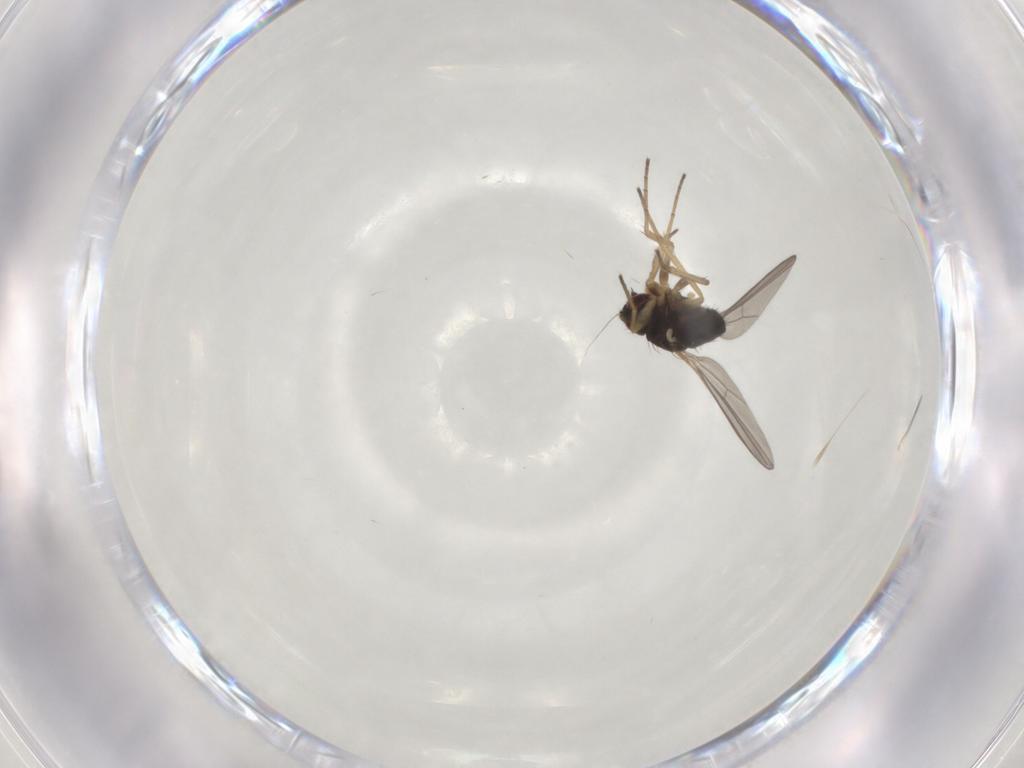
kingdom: Animalia
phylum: Arthropoda
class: Insecta
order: Diptera
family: Dolichopodidae
